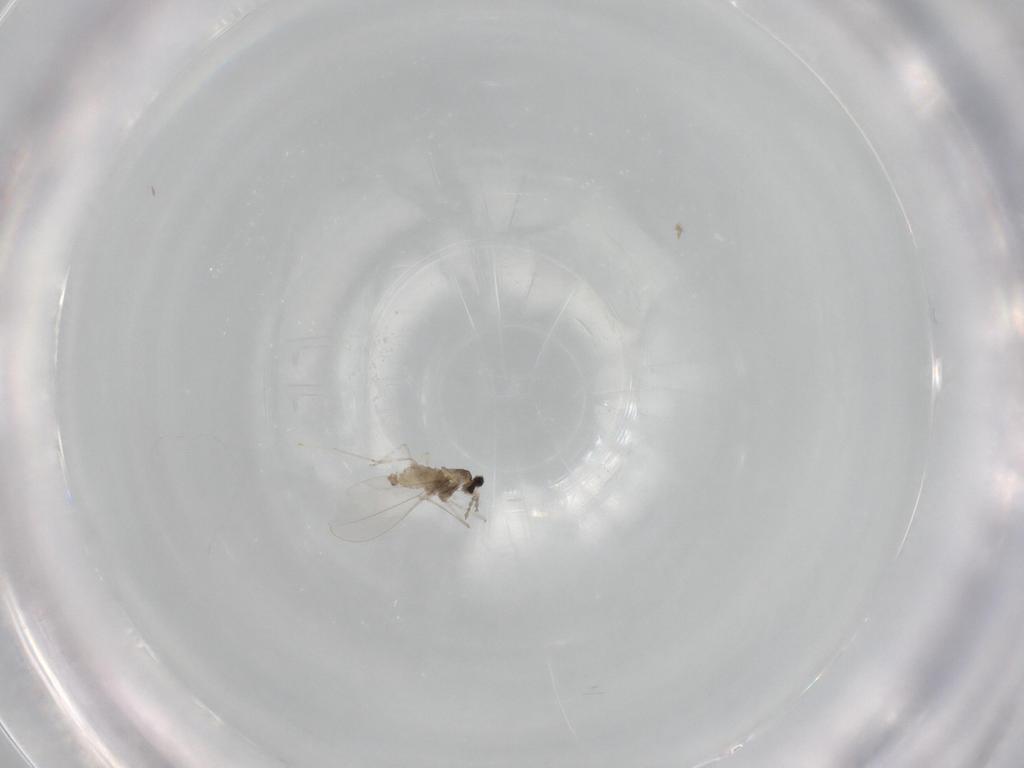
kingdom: Animalia
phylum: Arthropoda
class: Insecta
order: Diptera
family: Cecidomyiidae
